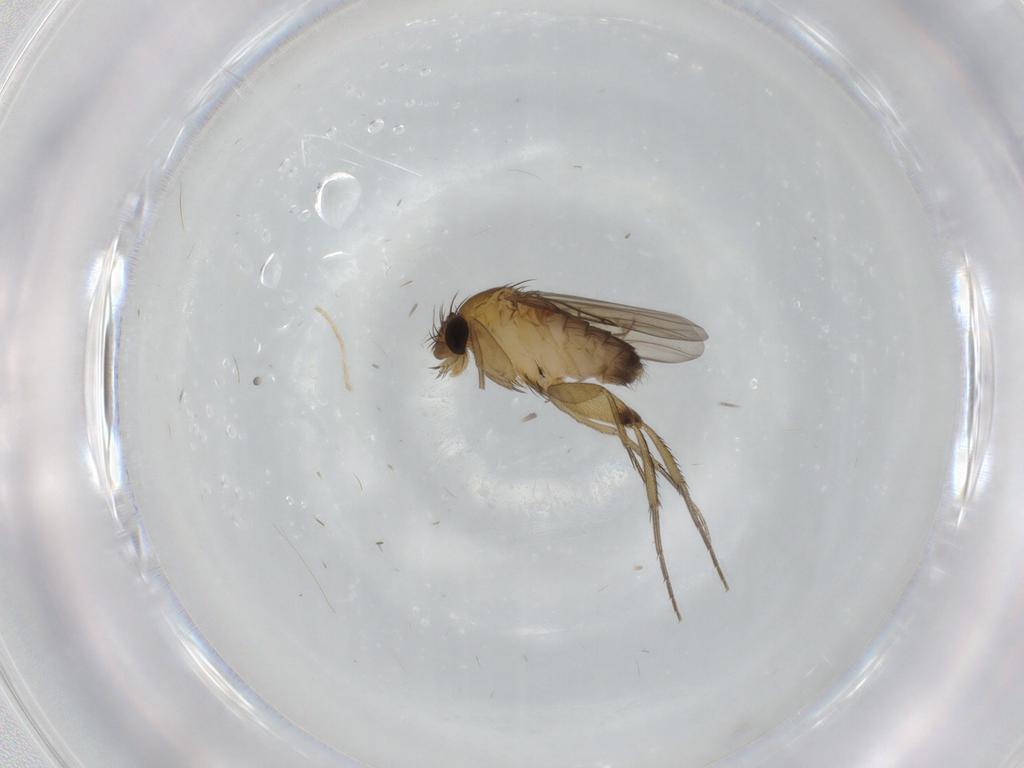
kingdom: Animalia
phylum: Arthropoda
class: Insecta
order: Diptera
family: Phoridae
